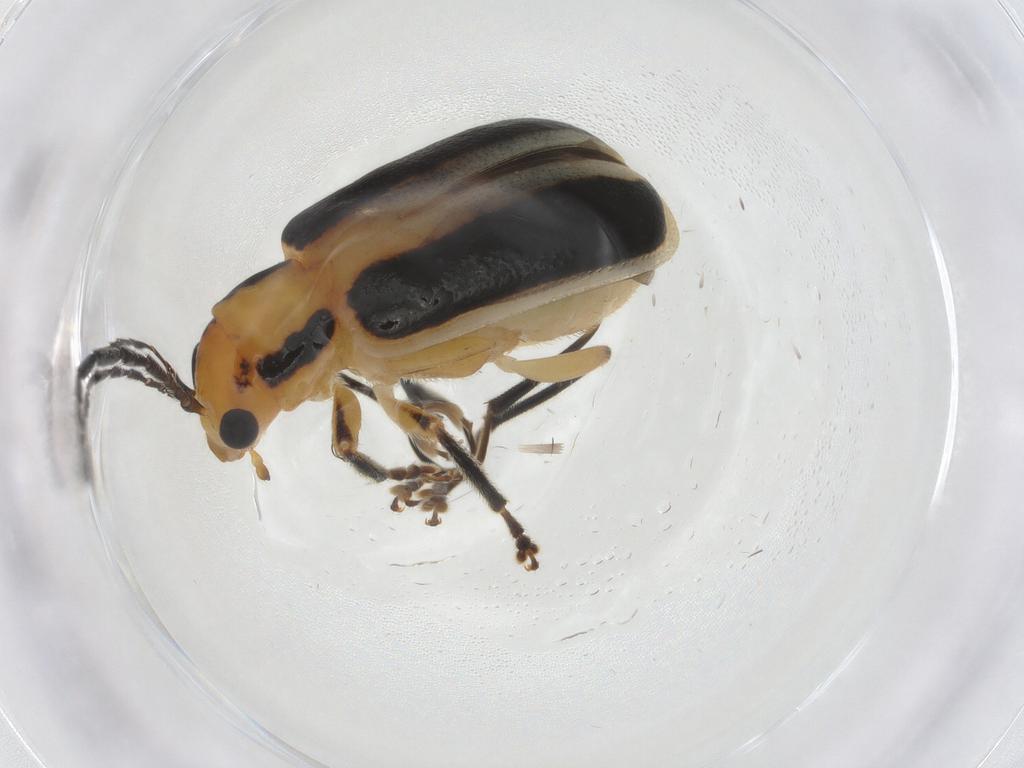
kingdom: Animalia
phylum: Arthropoda
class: Insecta
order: Coleoptera
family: Chrysomelidae
